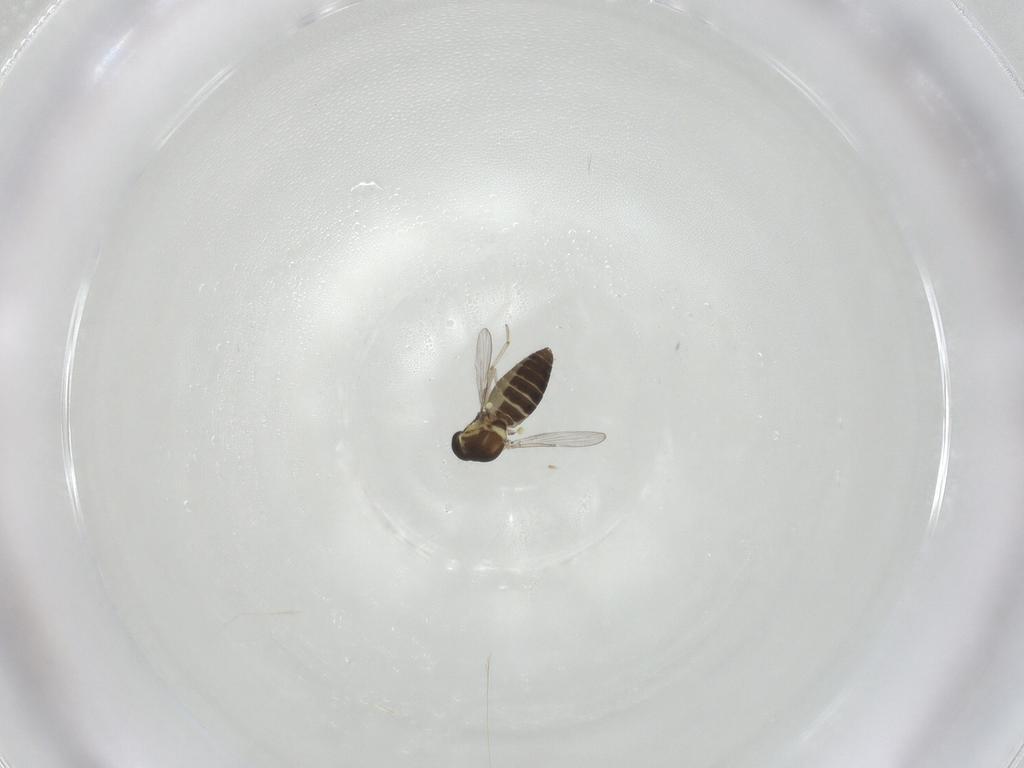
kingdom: Animalia
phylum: Arthropoda
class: Insecta
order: Diptera
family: Ceratopogonidae
